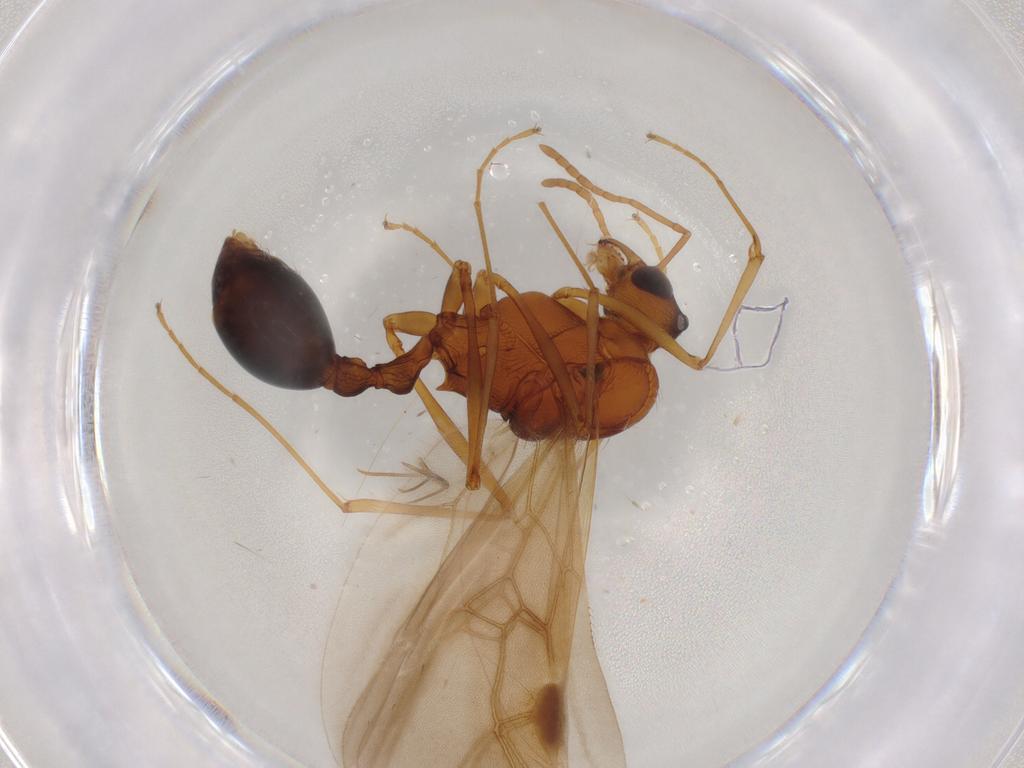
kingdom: Animalia
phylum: Arthropoda
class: Insecta
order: Hymenoptera
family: Formicidae
